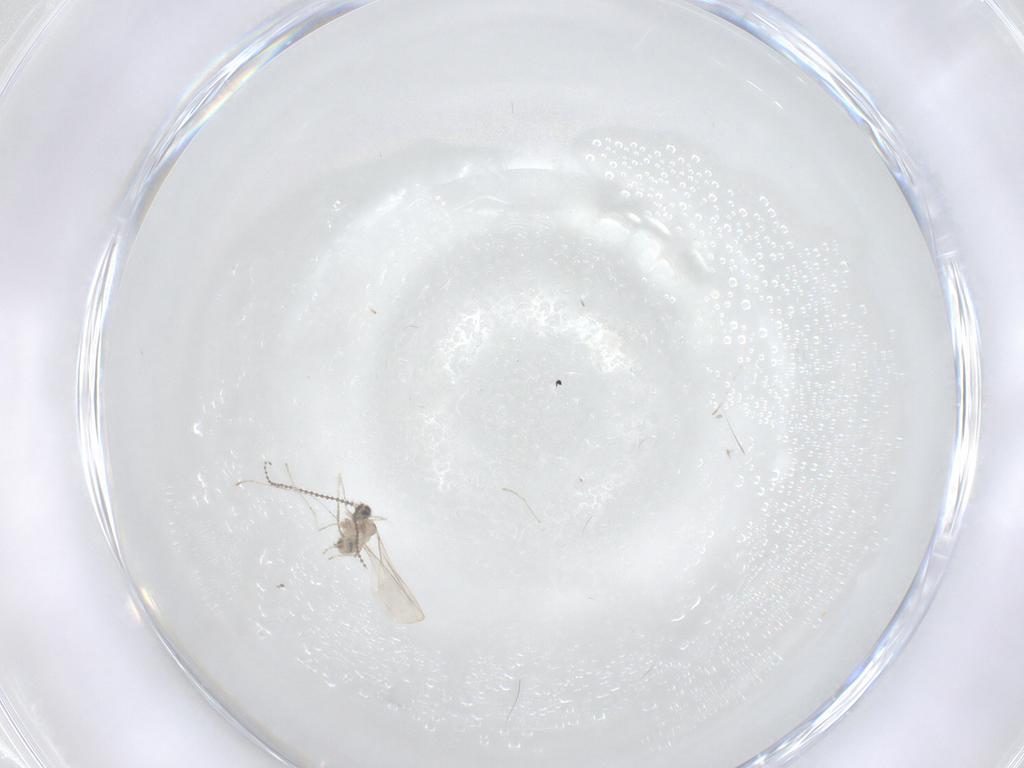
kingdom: Animalia
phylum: Arthropoda
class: Insecta
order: Diptera
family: Cecidomyiidae
